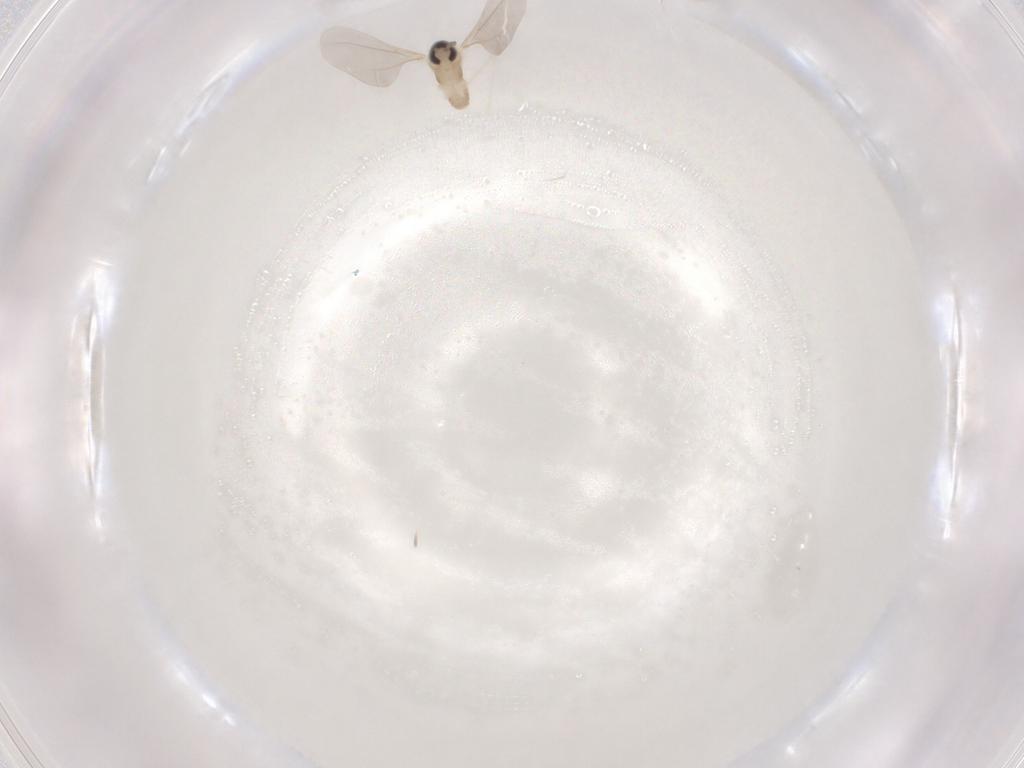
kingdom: Animalia
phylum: Arthropoda
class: Insecta
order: Diptera
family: Cecidomyiidae
